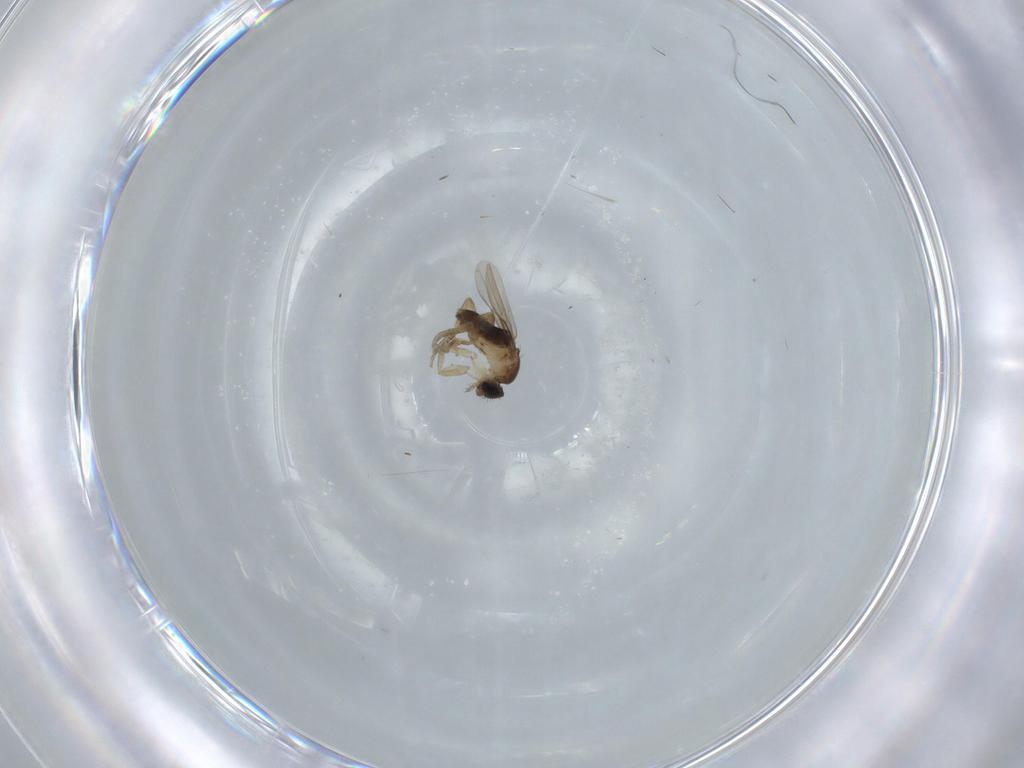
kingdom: Animalia
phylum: Arthropoda
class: Insecta
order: Diptera
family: Phoridae
